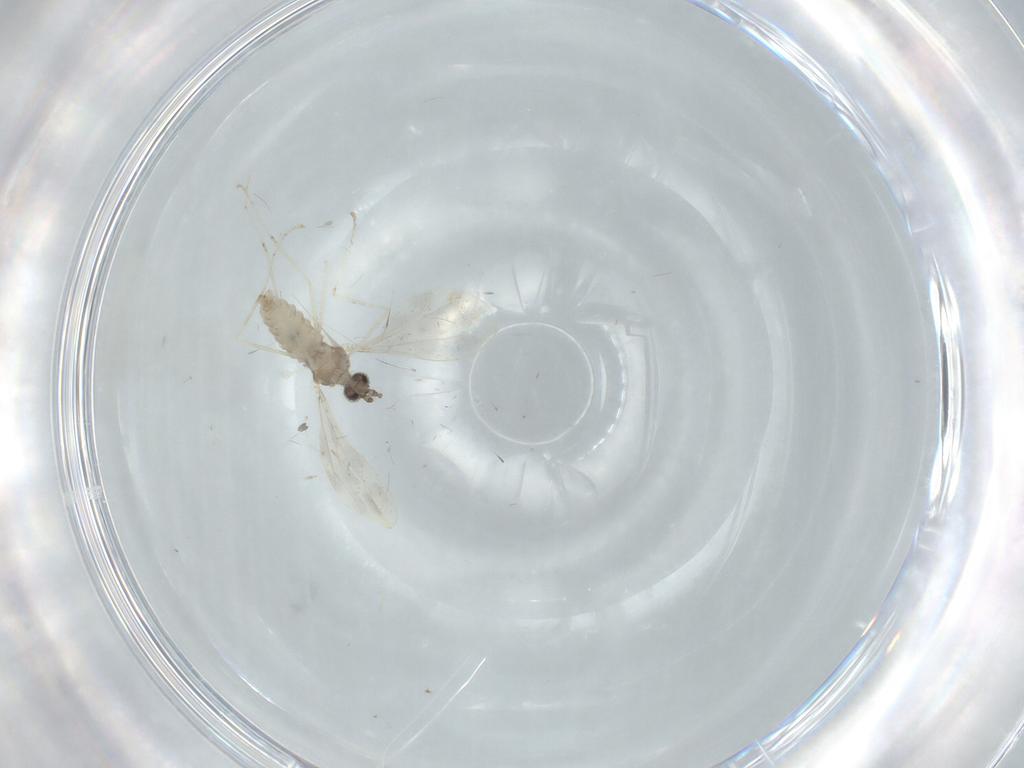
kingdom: Animalia
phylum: Arthropoda
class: Insecta
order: Diptera
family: Cecidomyiidae
